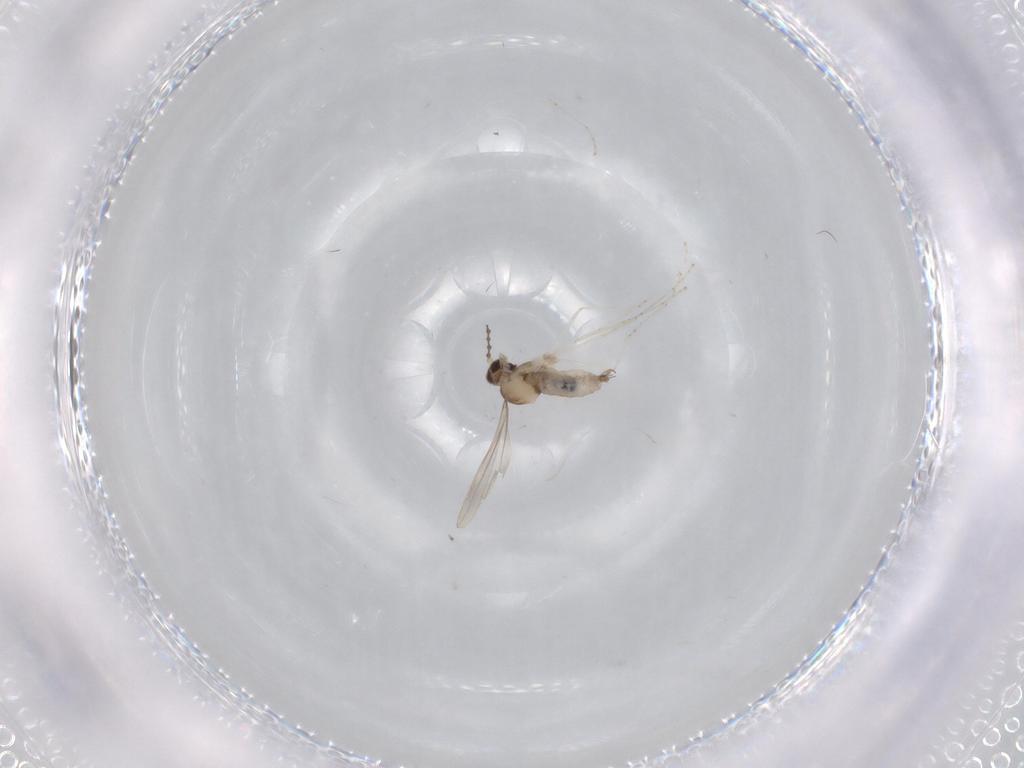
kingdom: Animalia
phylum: Arthropoda
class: Insecta
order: Diptera
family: Cecidomyiidae
